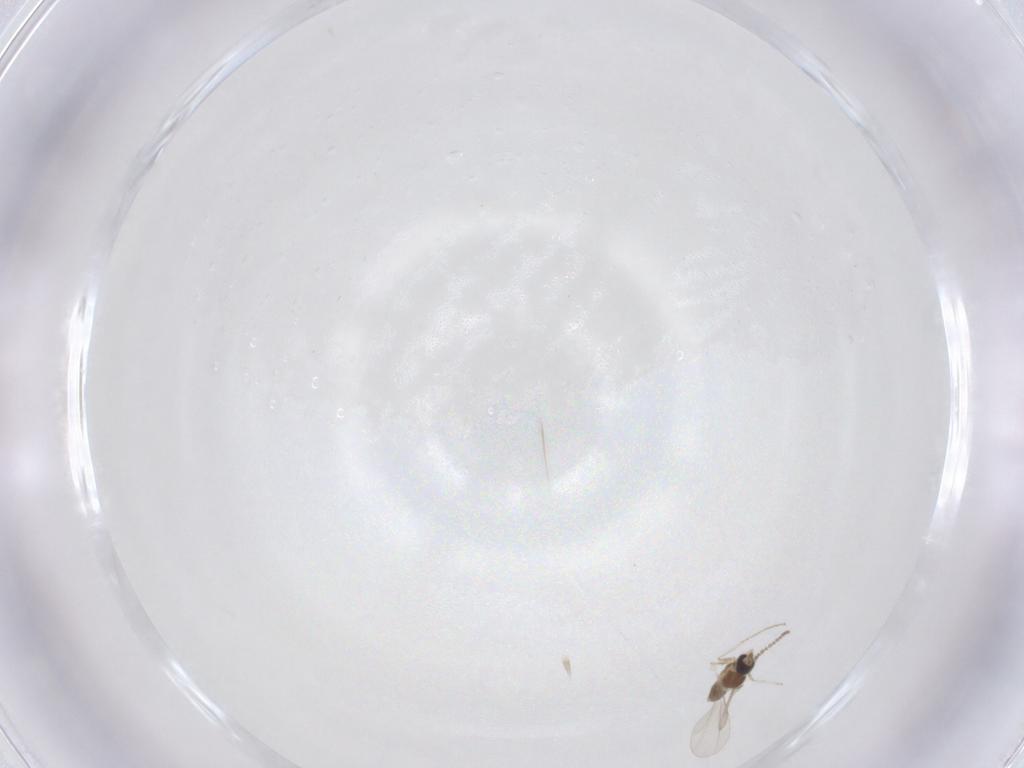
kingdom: Animalia
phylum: Arthropoda
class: Insecta
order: Diptera
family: Cecidomyiidae
